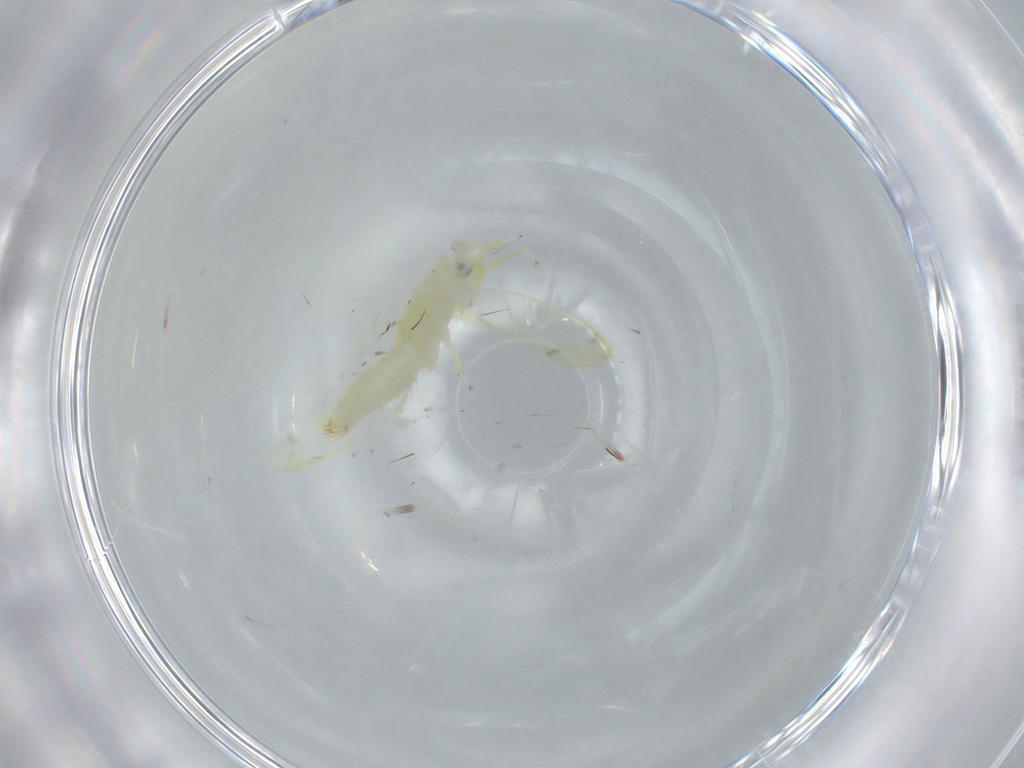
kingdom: Animalia
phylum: Arthropoda
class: Insecta
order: Hemiptera
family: Cicadellidae
